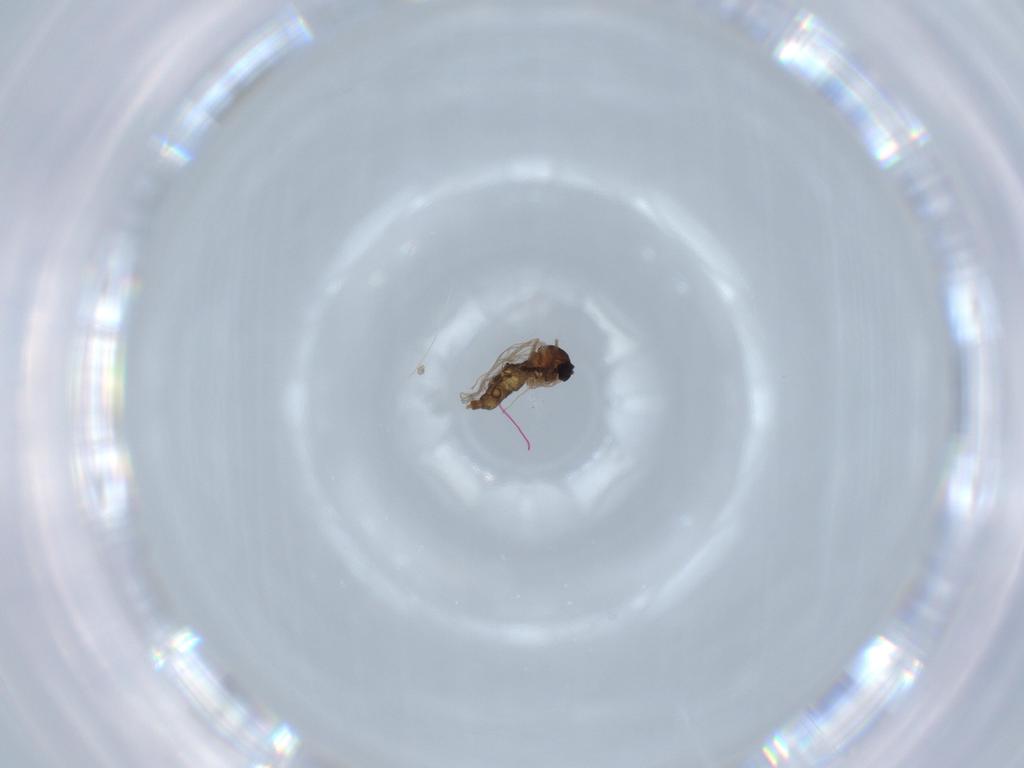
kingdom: Animalia
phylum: Arthropoda
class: Insecta
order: Diptera
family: Cecidomyiidae
